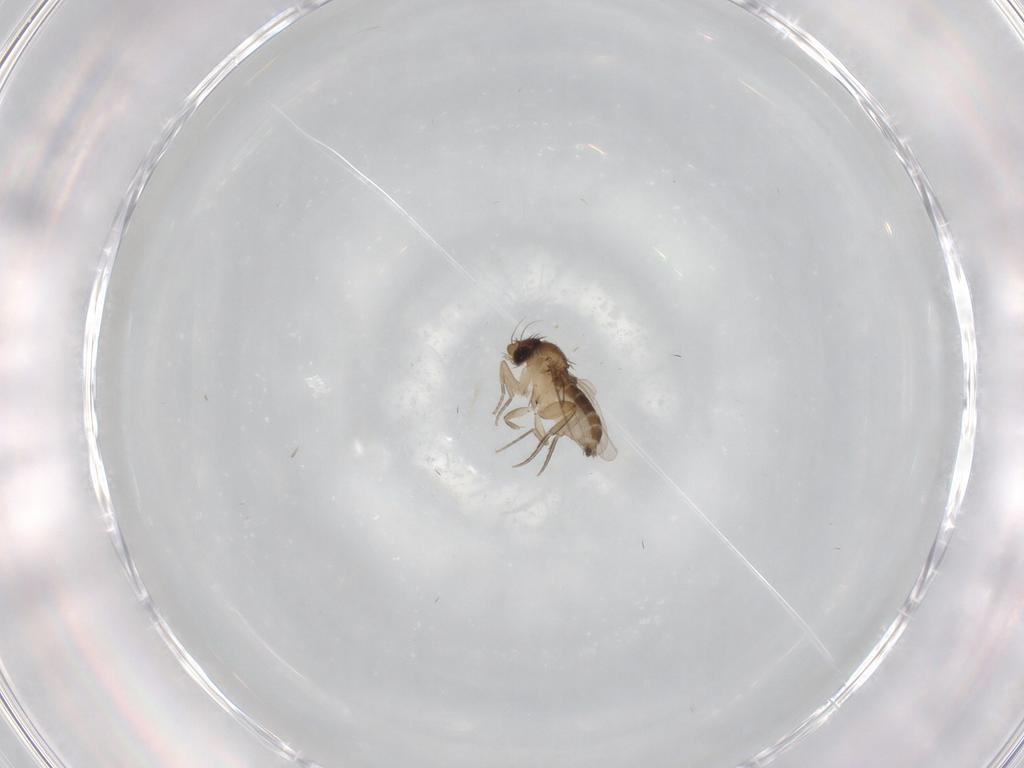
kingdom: Animalia
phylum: Arthropoda
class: Insecta
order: Diptera
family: Phoridae
